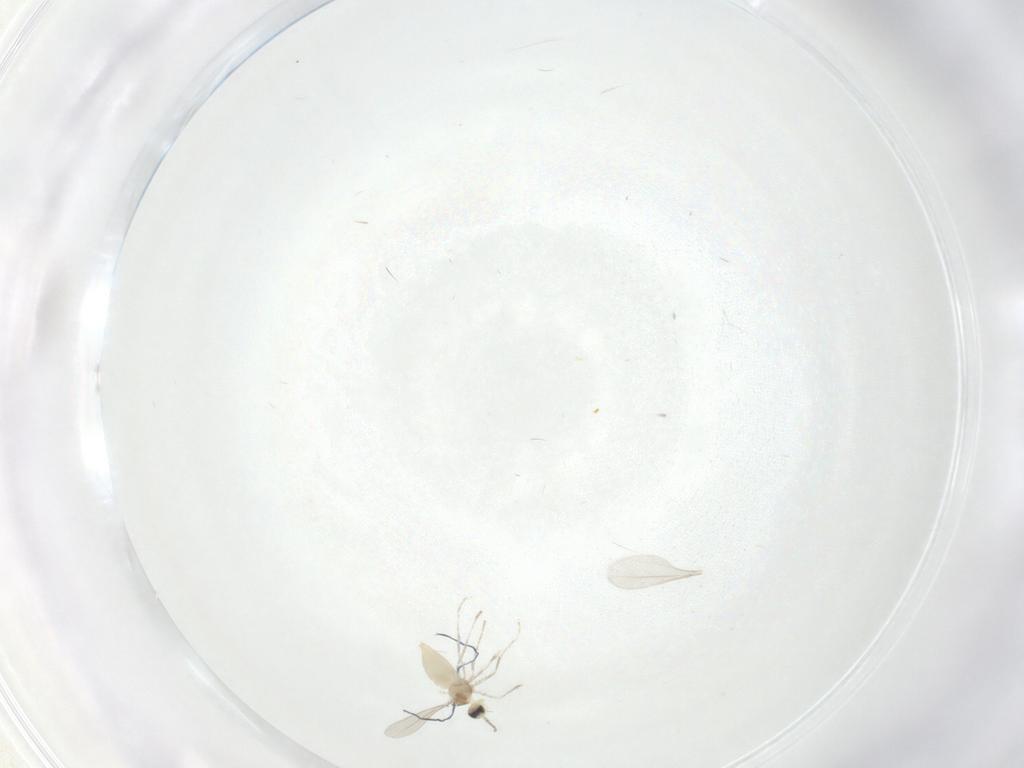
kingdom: Animalia
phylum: Arthropoda
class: Insecta
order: Diptera
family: Cecidomyiidae
